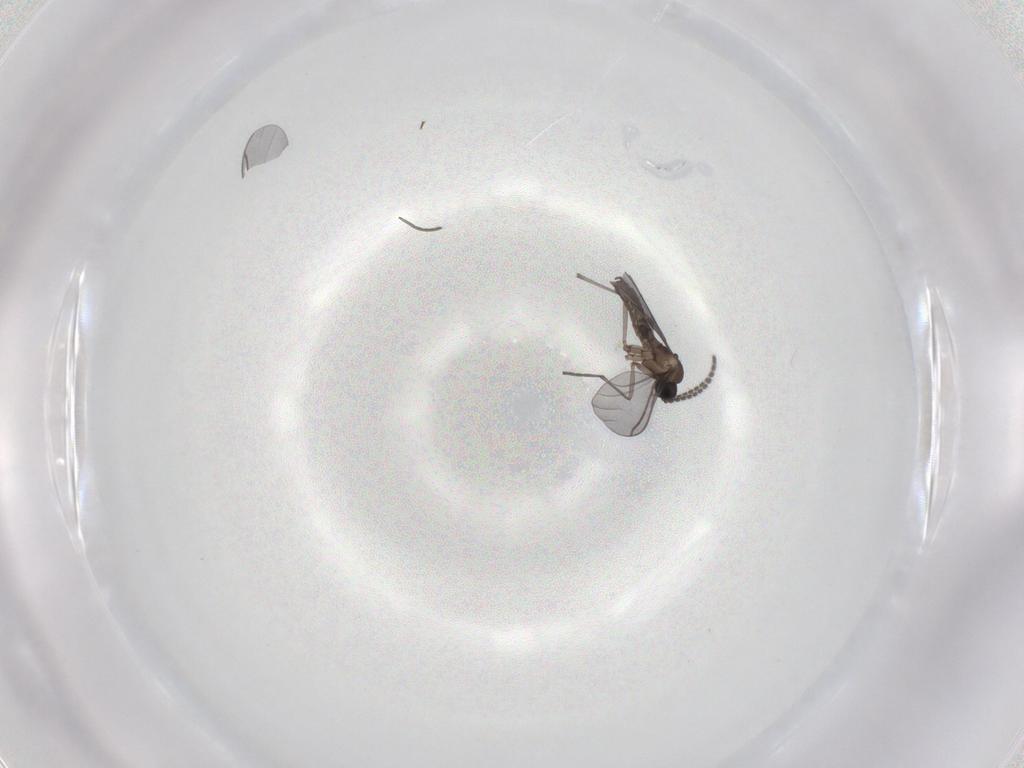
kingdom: Animalia
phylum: Arthropoda
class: Insecta
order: Diptera
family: Sciaridae
